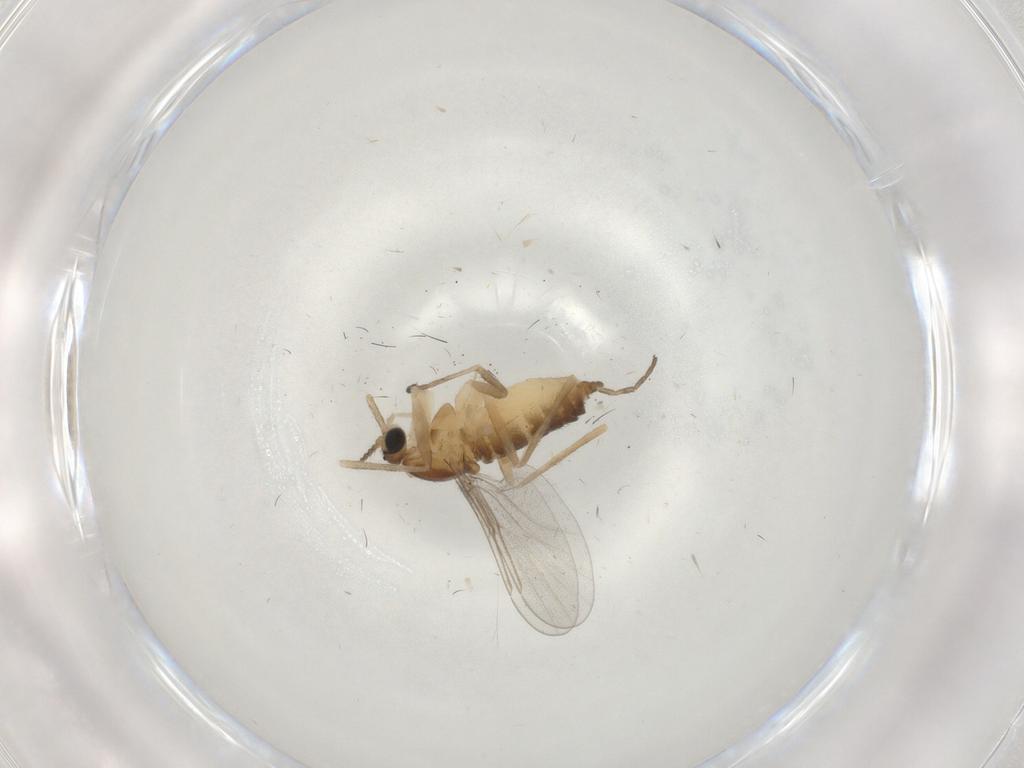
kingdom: Animalia
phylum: Arthropoda
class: Insecta
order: Diptera
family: Cecidomyiidae
